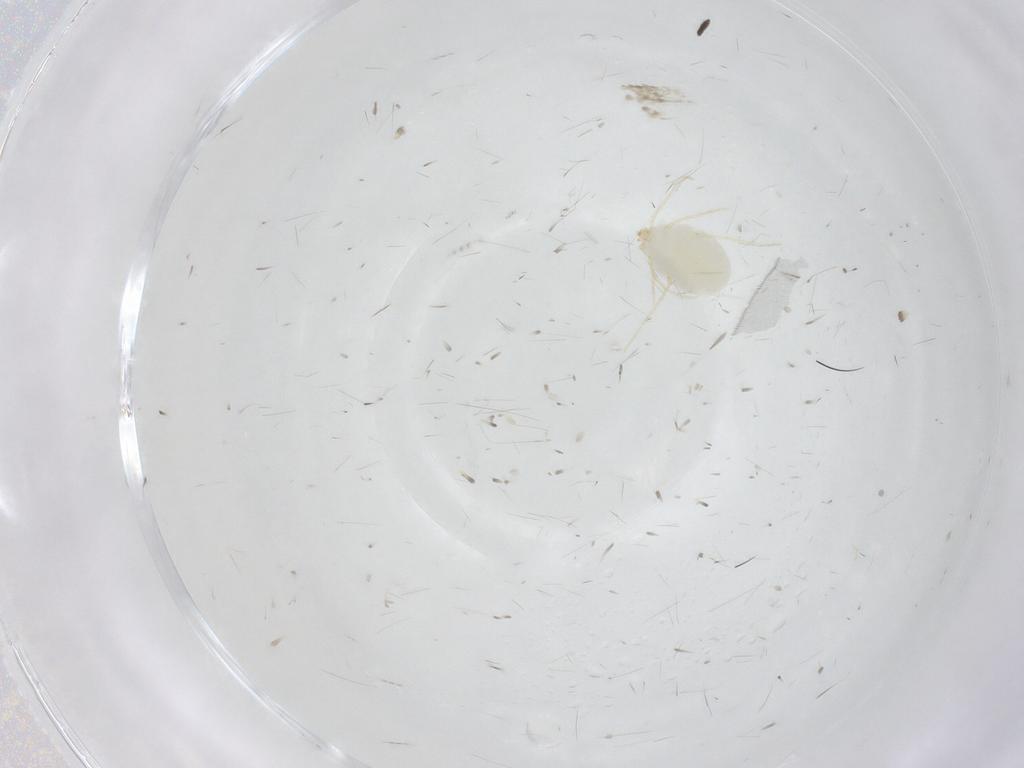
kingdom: Animalia
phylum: Arthropoda
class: Arachnida
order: Trombidiformes
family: Erythraeidae
